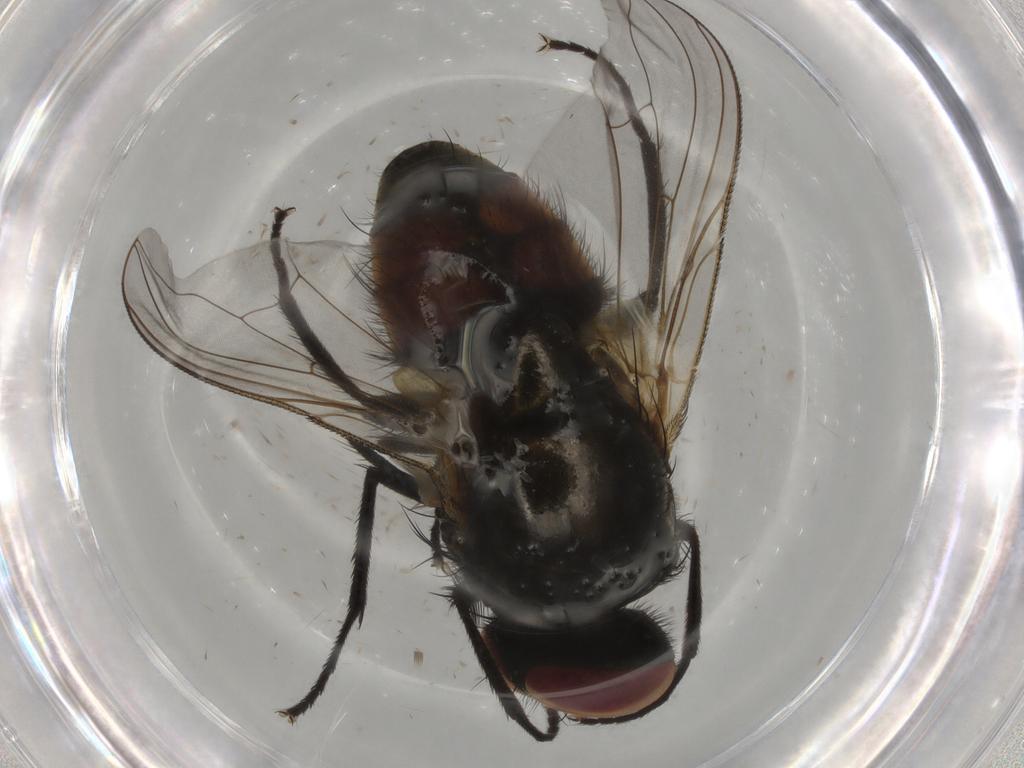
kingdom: Animalia
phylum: Arthropoda
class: Insecta
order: Diptera
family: Muscidae
